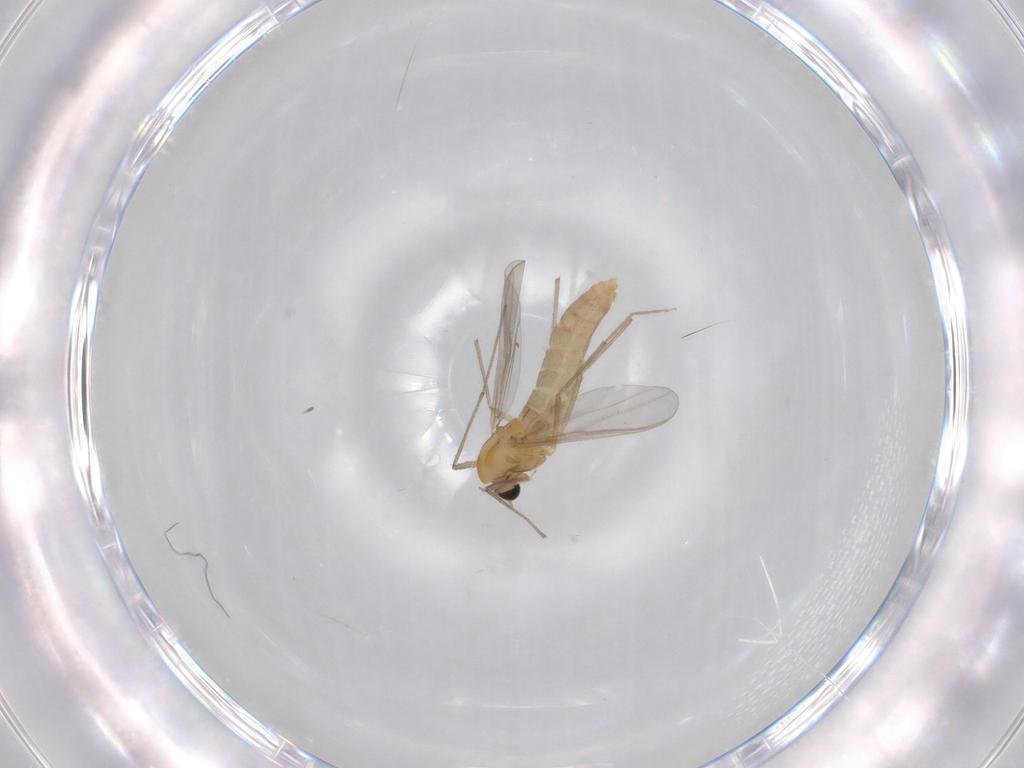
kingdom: Animalia
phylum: Arthropoda
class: Insecta
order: Diptera
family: Chironomidae
